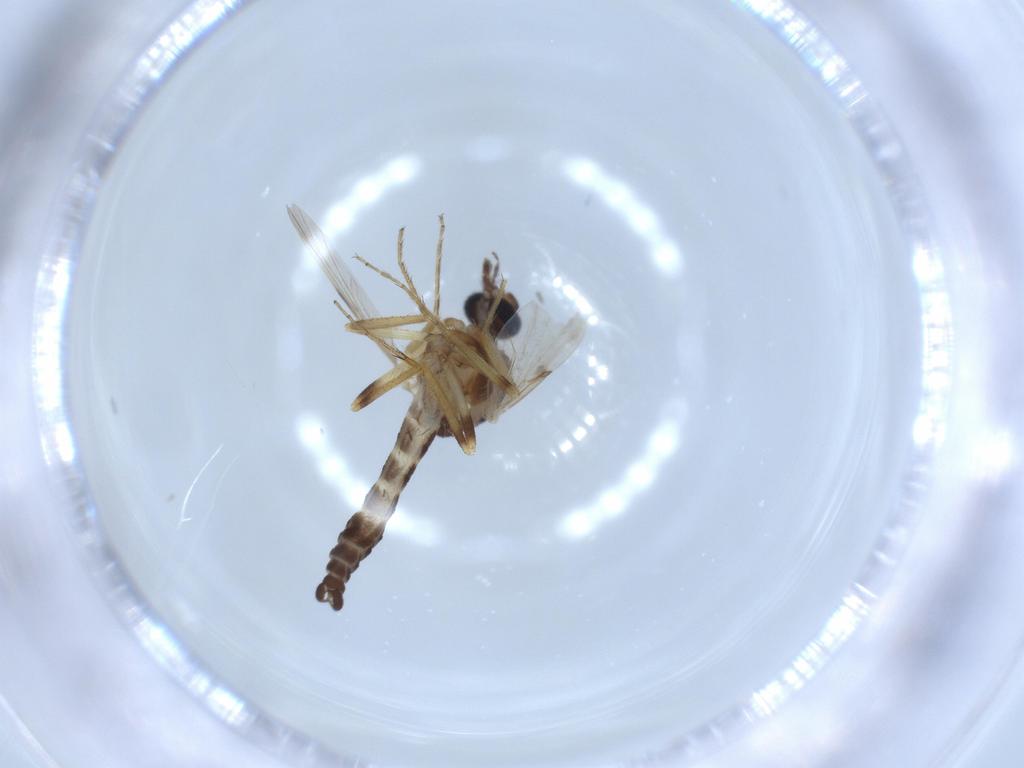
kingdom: Animalia
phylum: Arthropoda
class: Insecta
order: Diptera
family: Ceratopogonidae
